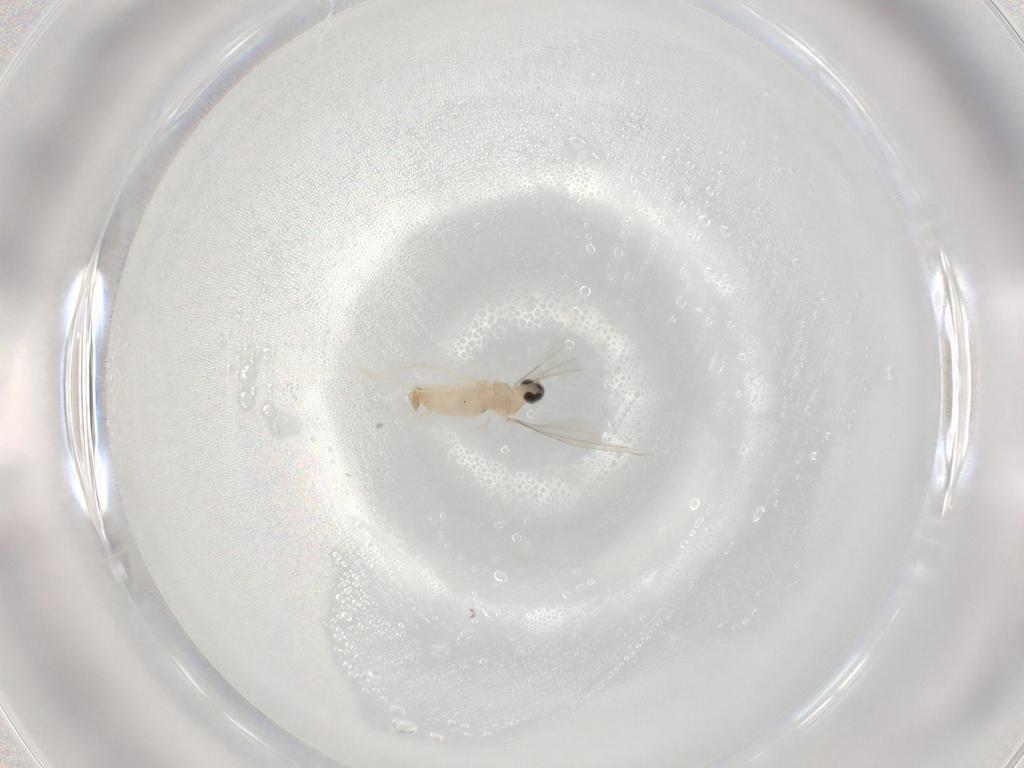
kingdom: Animalia
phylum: Arthropoda
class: Insecta
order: Diptera
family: Cecidomyiidae
